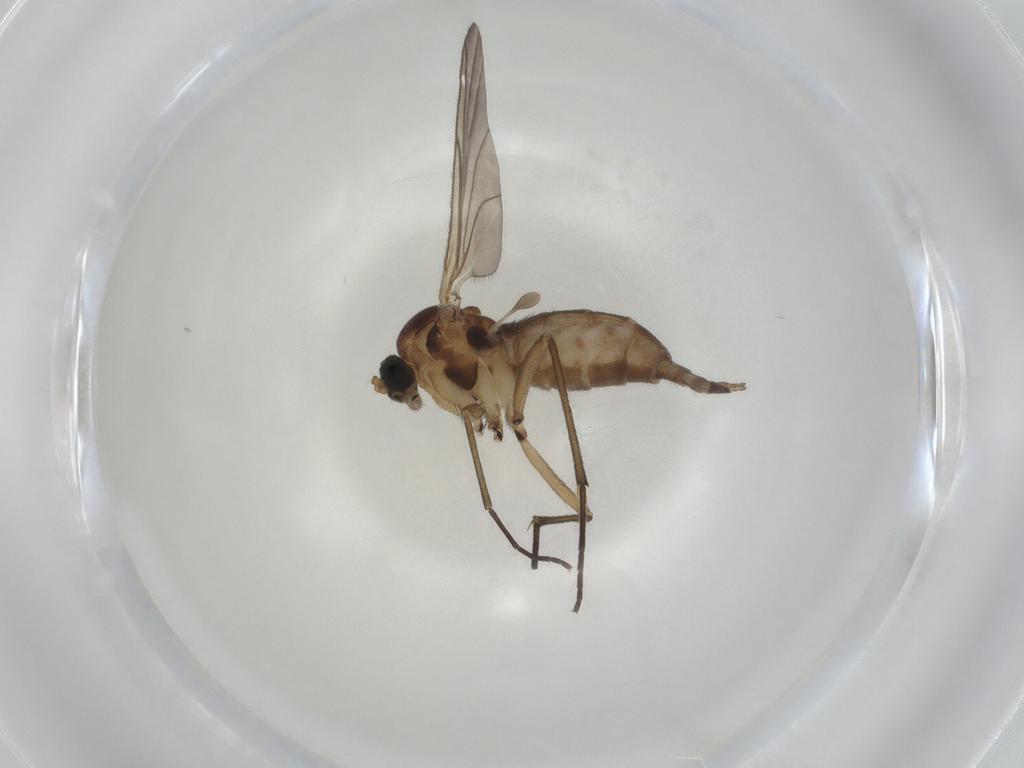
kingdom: Animalia
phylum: Arthropoda
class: Insecta
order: Diptera
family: Sciaridae
